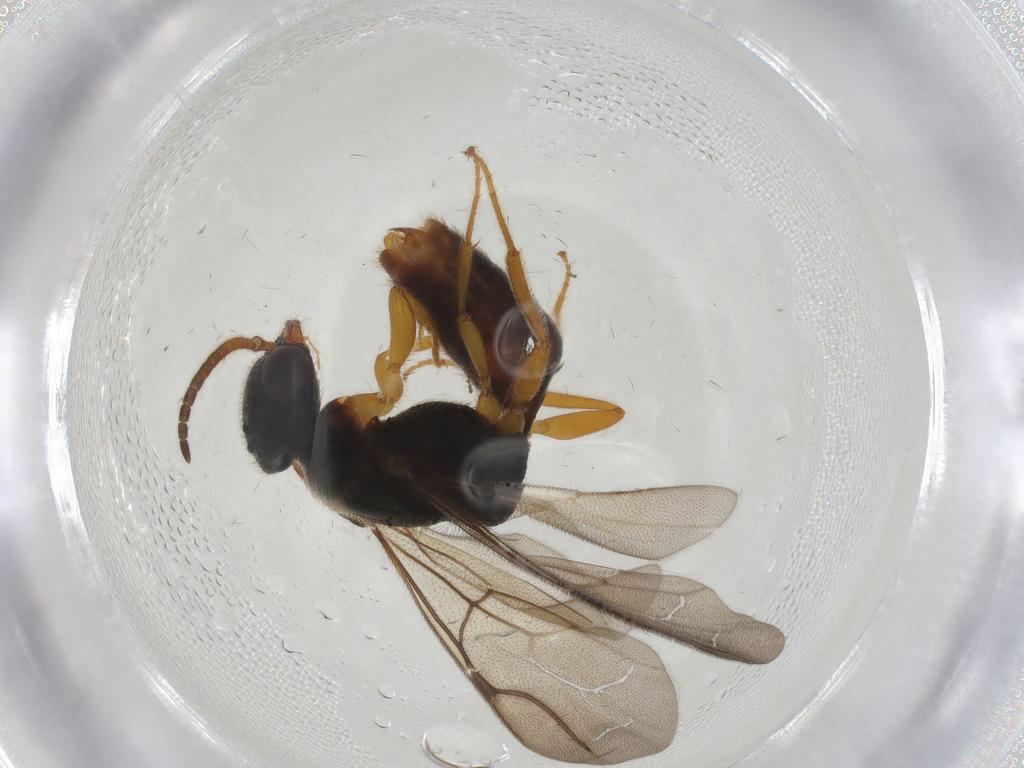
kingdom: Animalia
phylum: Arthropoda
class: Insecta
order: Hymenoptera
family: Bethylidae
